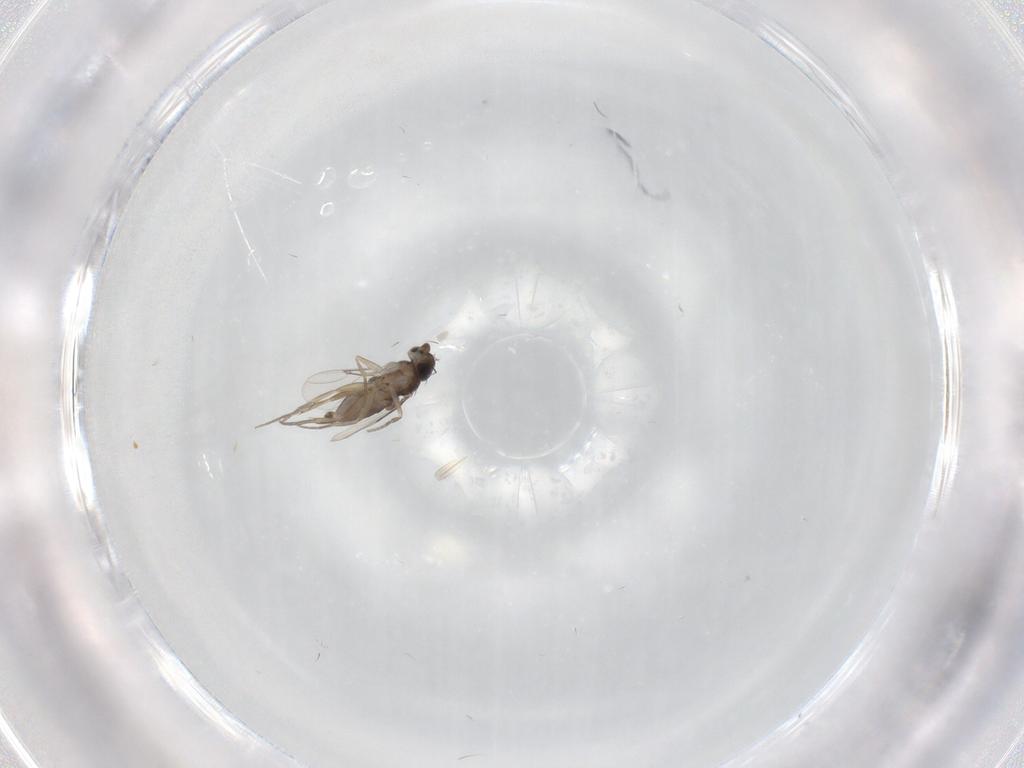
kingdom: Animalia
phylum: Arthropoda
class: Insecta
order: Diptera
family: Phoridae
